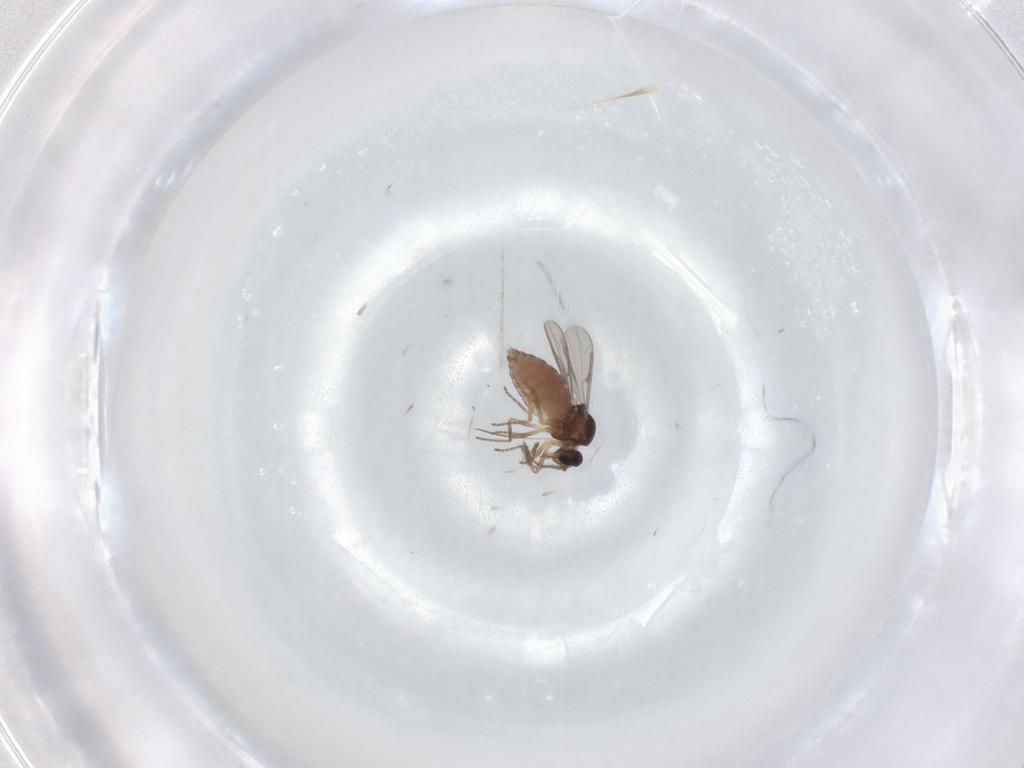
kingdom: Animalia
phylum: Arthropoda
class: Insecta
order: Diptera
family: Ceratopogonidae
